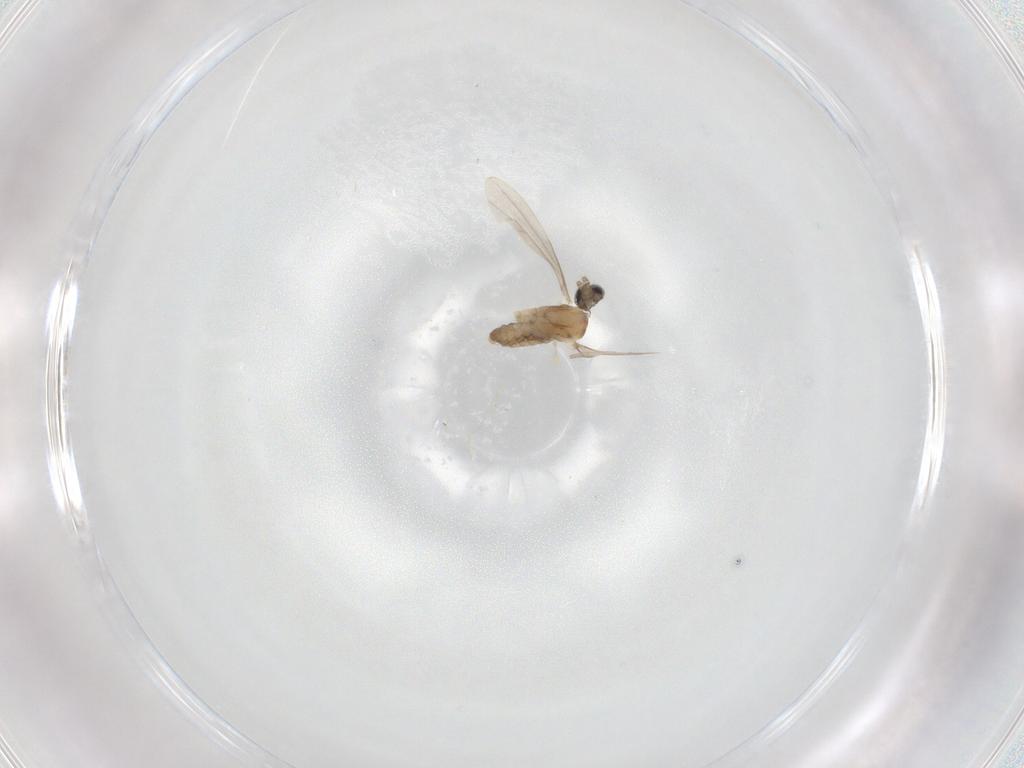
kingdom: Animalia
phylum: Arthropoda
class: Insecta
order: Diptera
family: Cecidomyiidae
